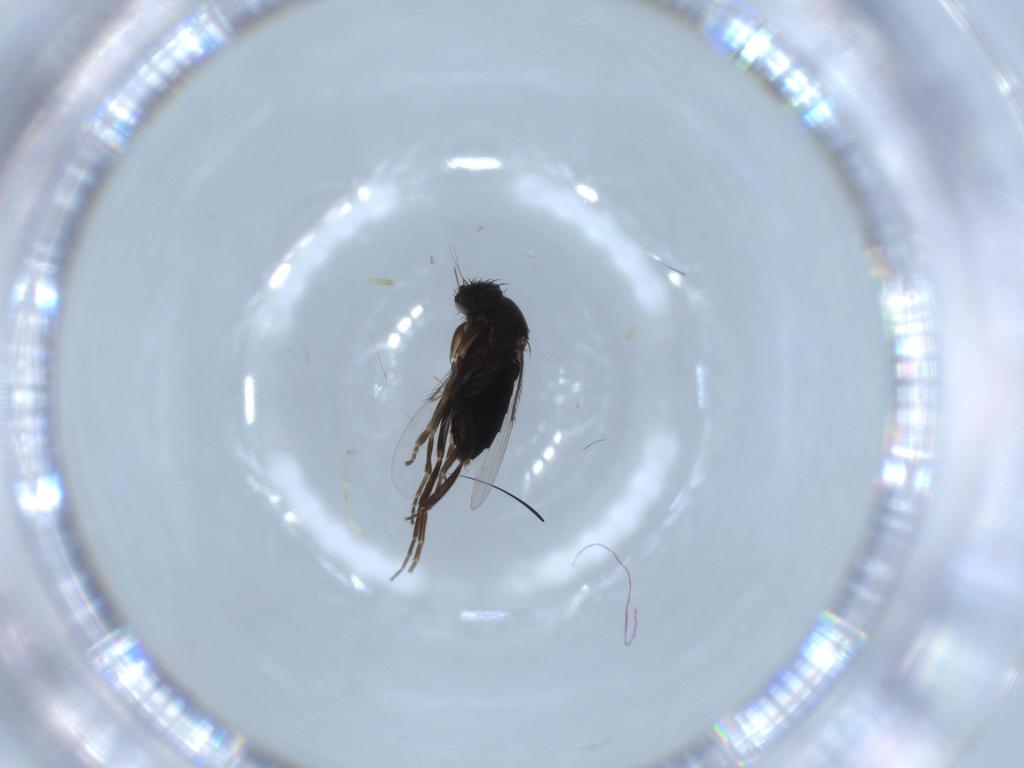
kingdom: Animalia
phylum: Arthropoda
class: Insecta
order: Diptera
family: Phoridae
